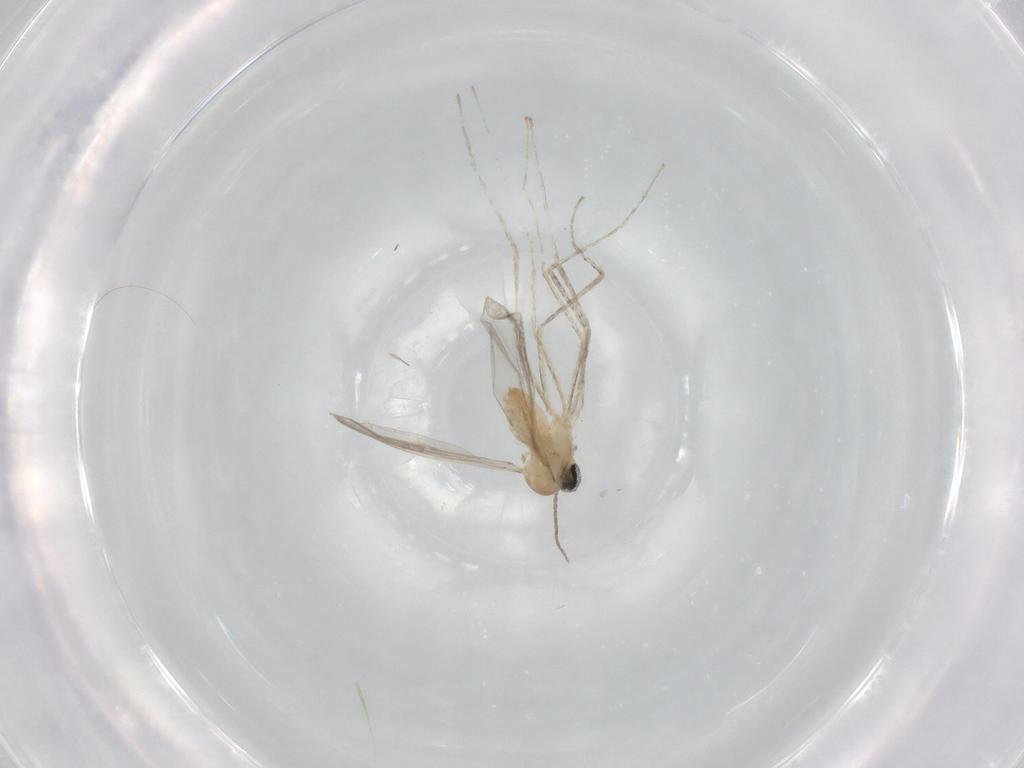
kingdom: Animalia
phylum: Arthropoda
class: Insecta
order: Diptera
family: Cecidomyiidae
